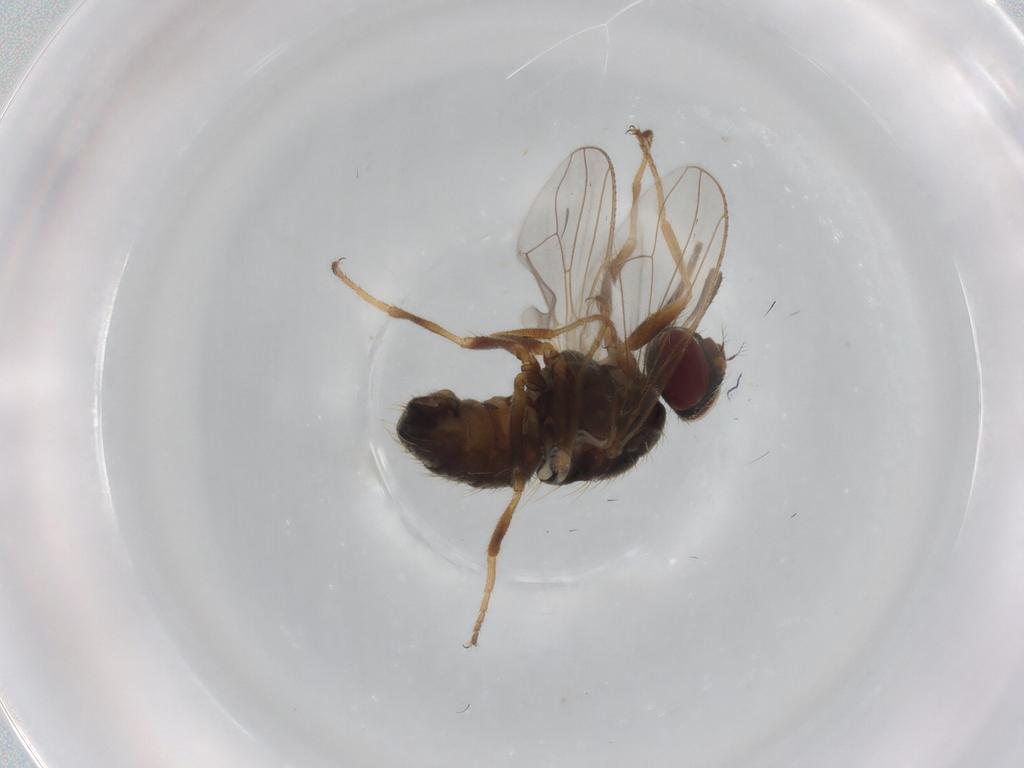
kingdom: Animalia
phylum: Arthropoda
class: Insecta
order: Diptera
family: Muscidae
